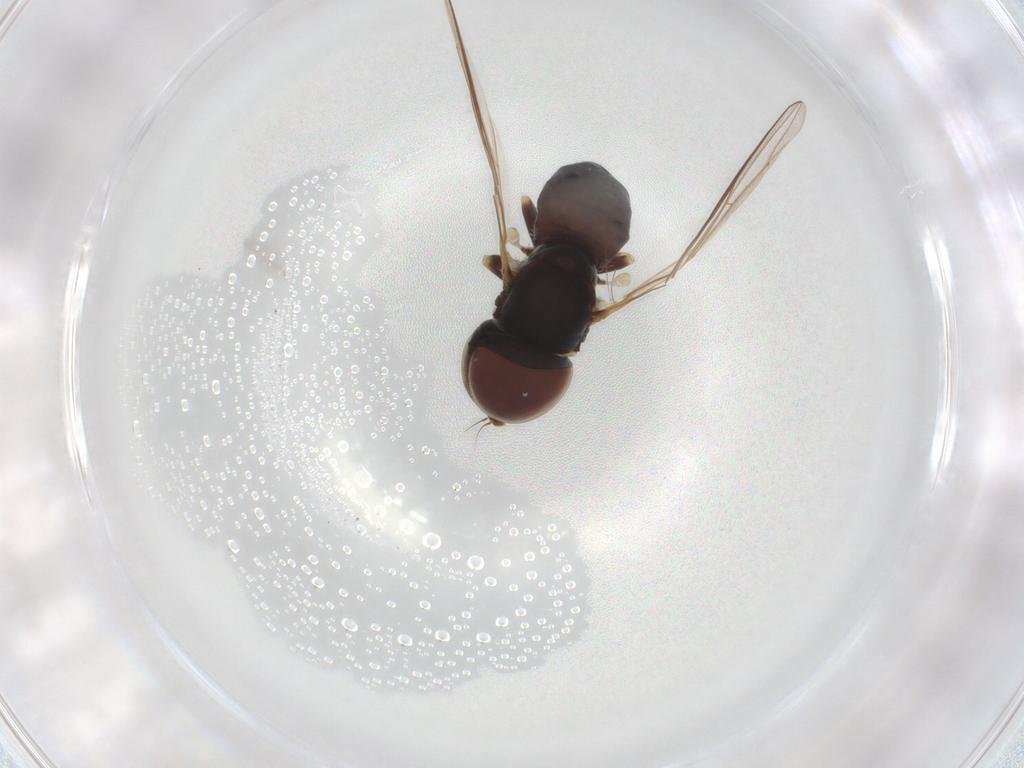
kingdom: Animalia
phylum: Arthropoda
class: Insecta
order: Diptera
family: Pipunculidae
